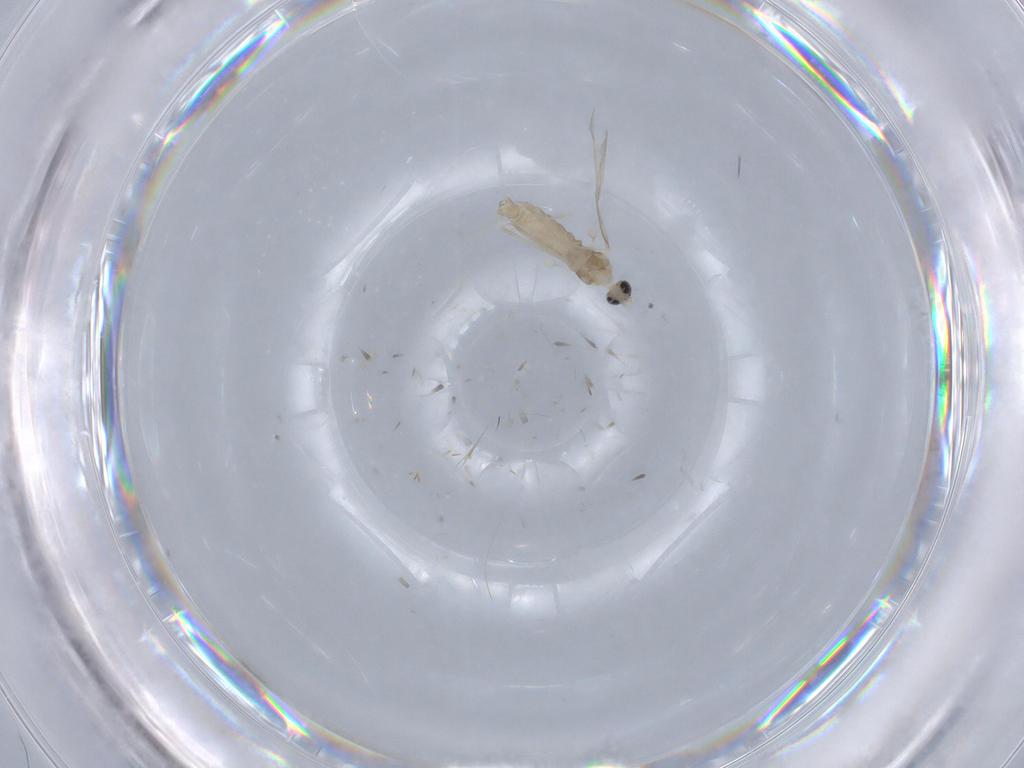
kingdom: Animalia
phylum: Arthropoda
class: Insecta
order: Diptera
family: Cecidomyiidae
